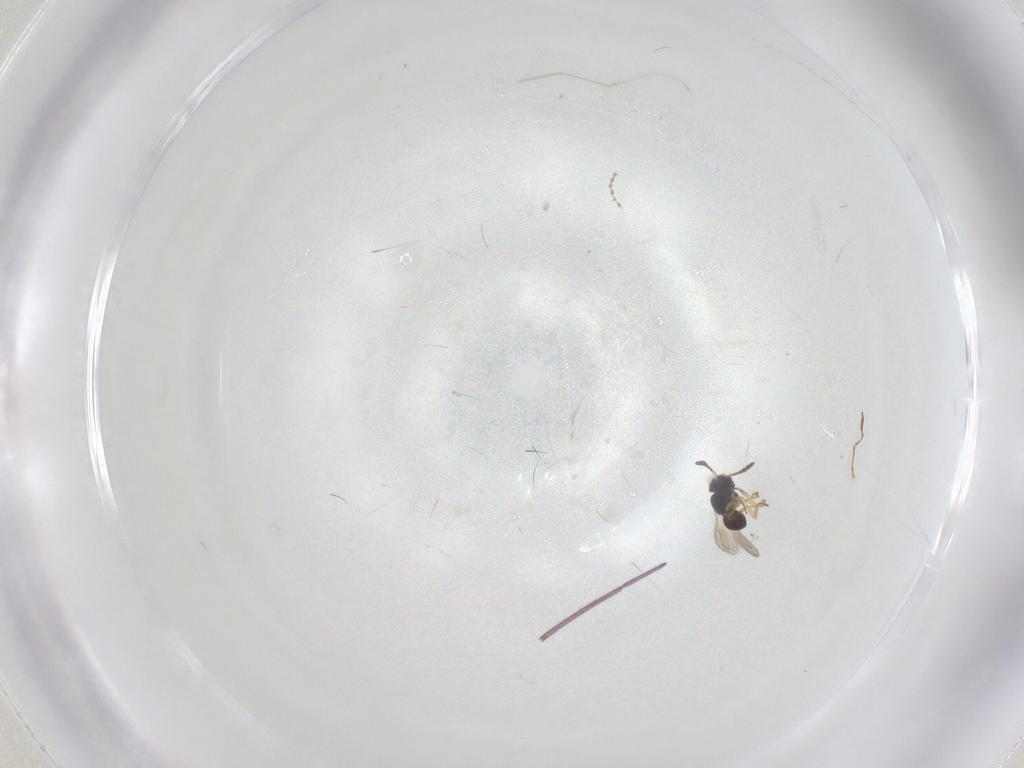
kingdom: Animalia
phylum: Arthropoda
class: Insecta
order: Hymenoptera
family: Scelionidae
